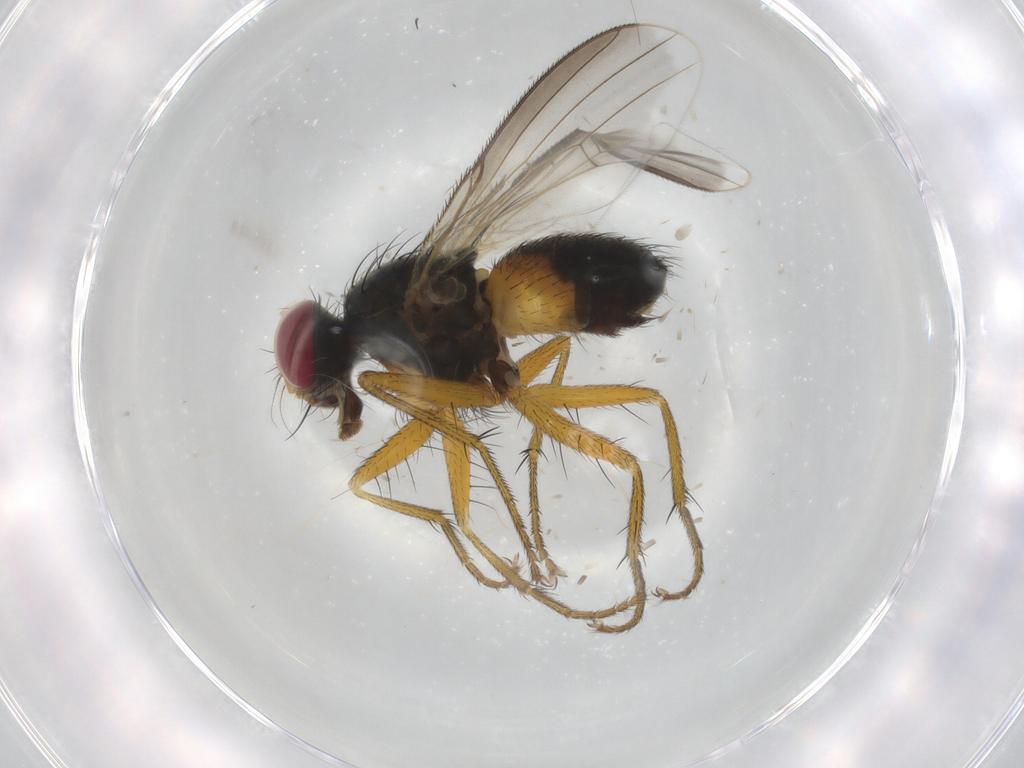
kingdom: Animalia
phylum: Arthropoda
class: Insecta
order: Diptera
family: Muscidae
